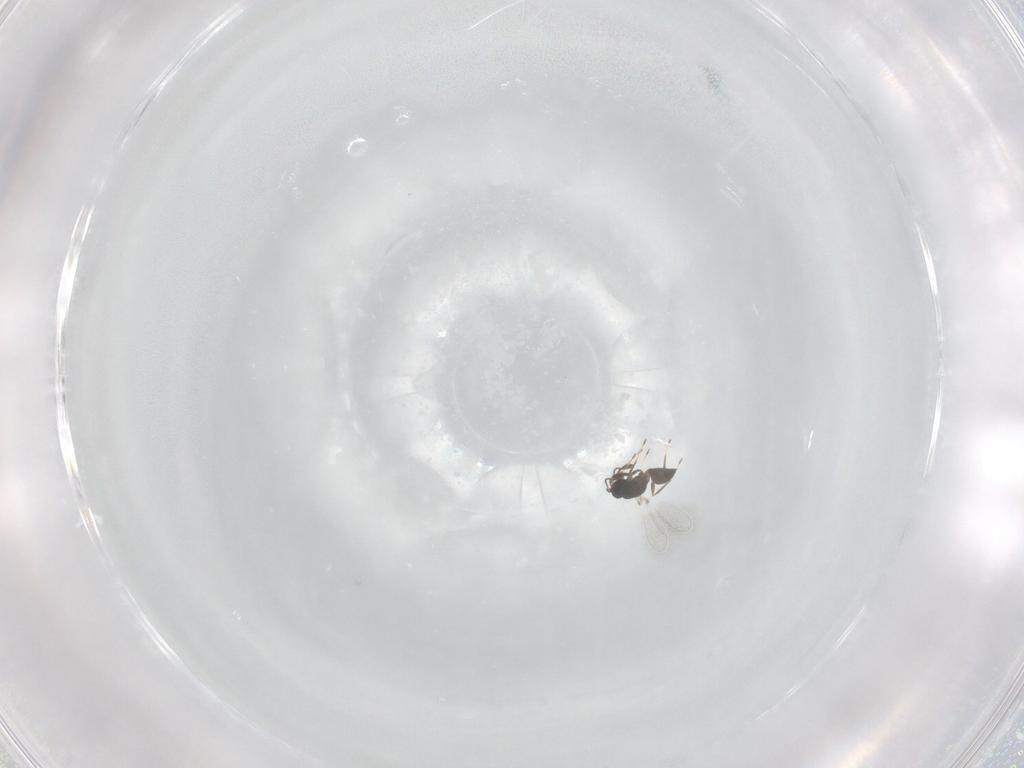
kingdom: Animalia
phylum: Arthropoda
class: Insecta
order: Hymenoptera
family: Mymaridae
